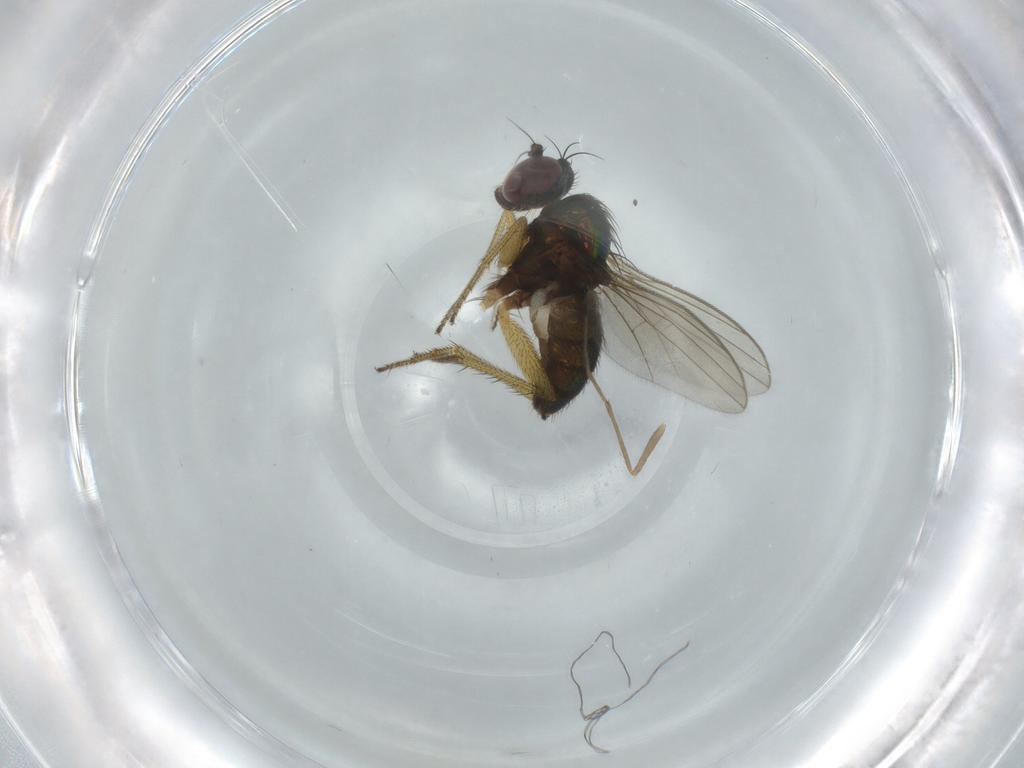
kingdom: Animalia
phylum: Arthropoda
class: Insecta
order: Diptera
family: Dolichopodidae
